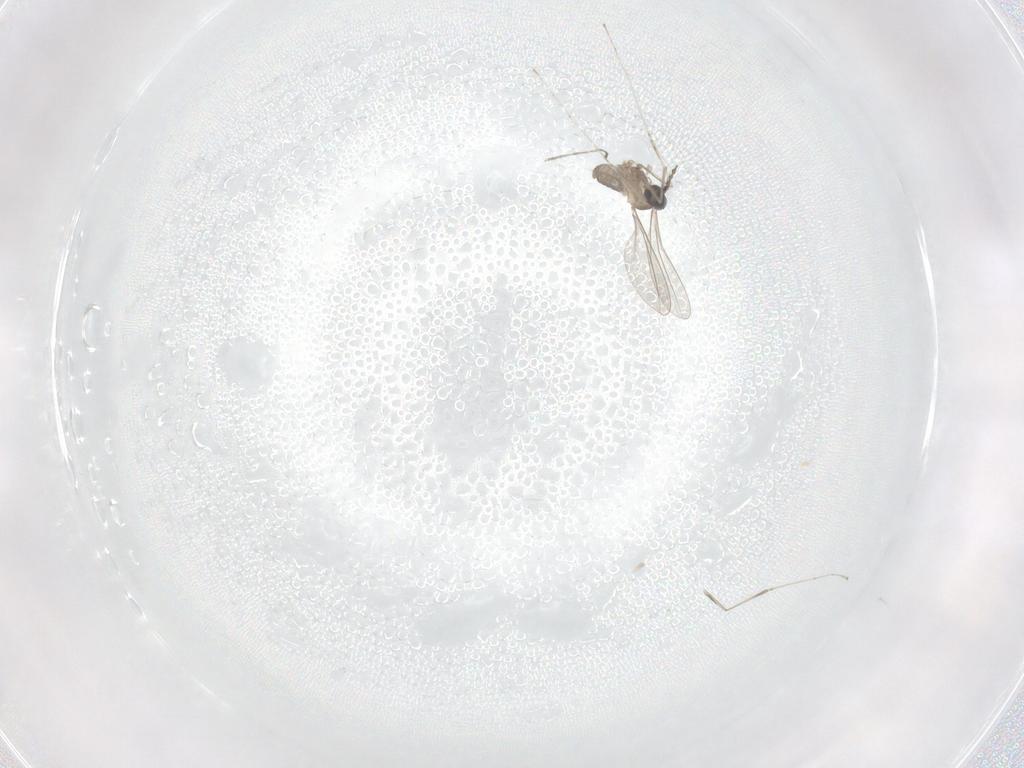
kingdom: Animalia
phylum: Arthropoda
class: Insecta
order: Diptera
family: Cecidomyiidae
